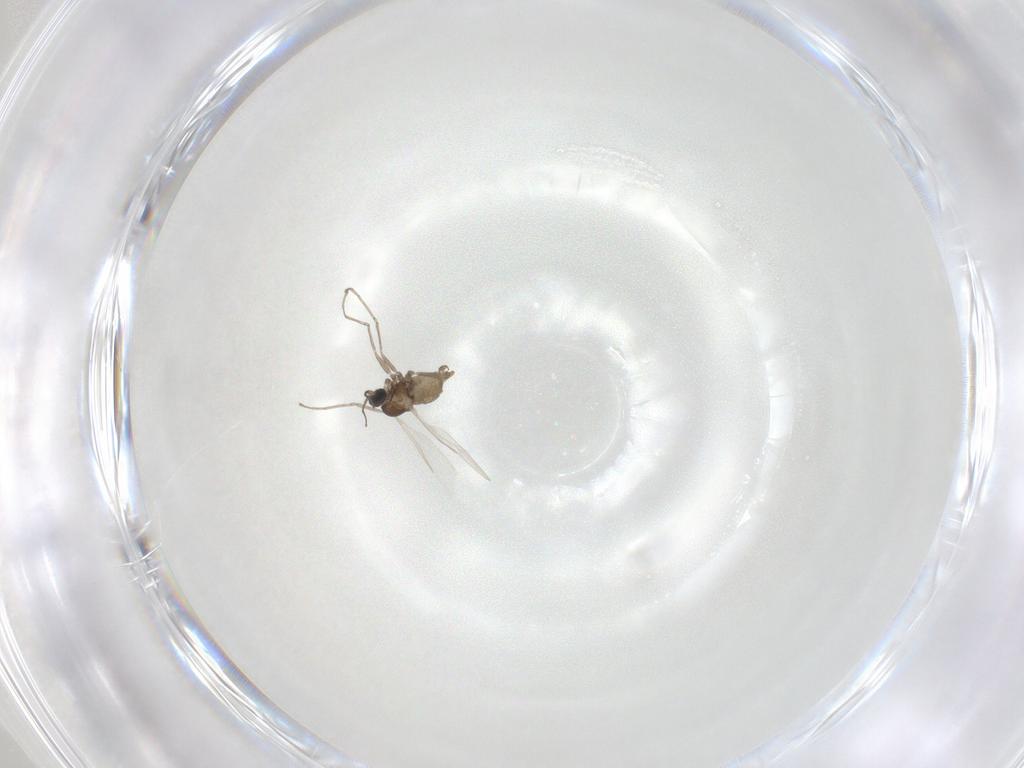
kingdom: Animalia
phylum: Arthropoda
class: Insecta
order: Diptera
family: Cecidomyiidae
